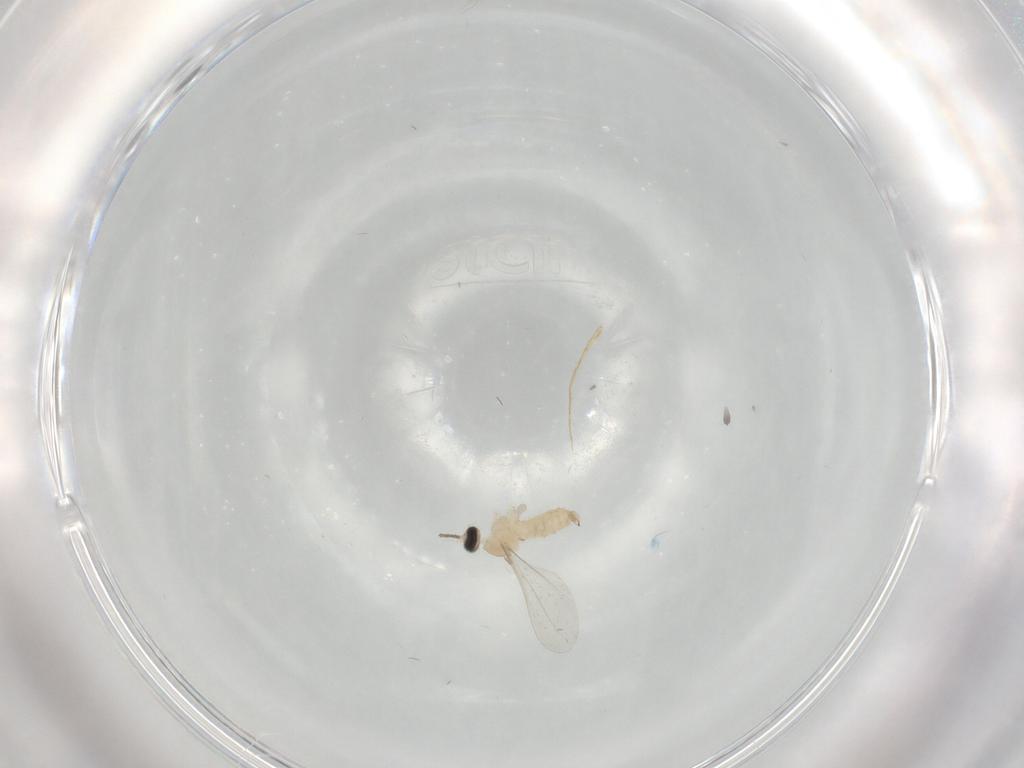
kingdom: Animalia
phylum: Arthropoda
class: Insecta
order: Diptera
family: Cecidomyiidae
